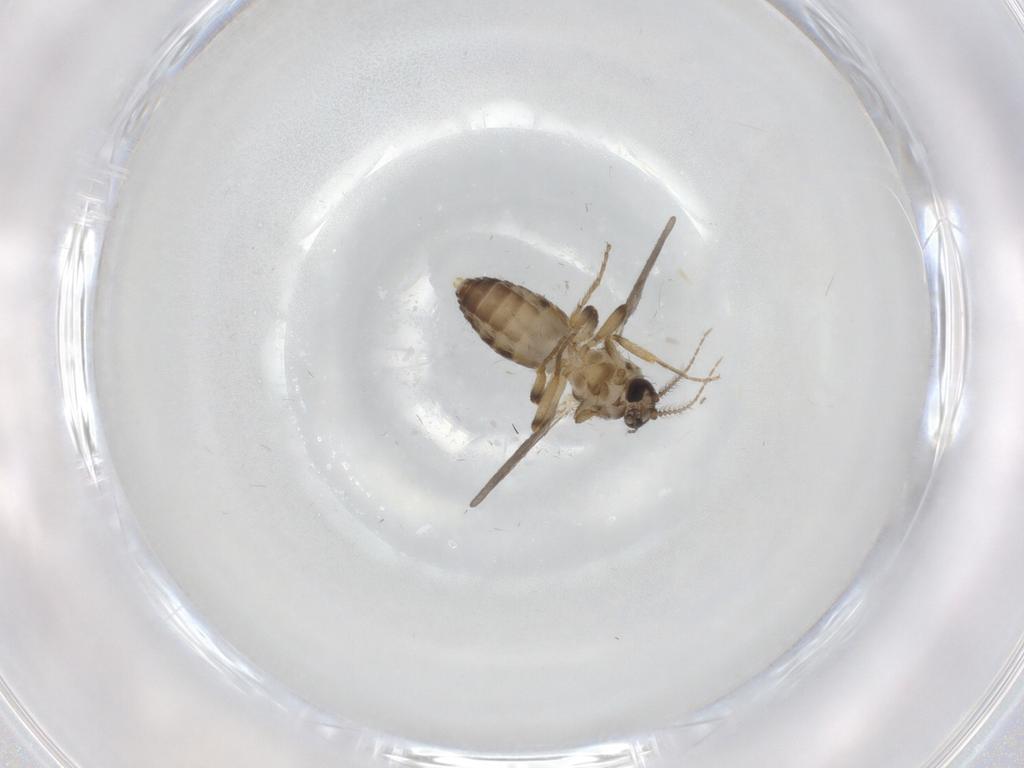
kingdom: Animalia
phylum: Arthropoda
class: Insecta
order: Diptera
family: Ceratopogonidae
